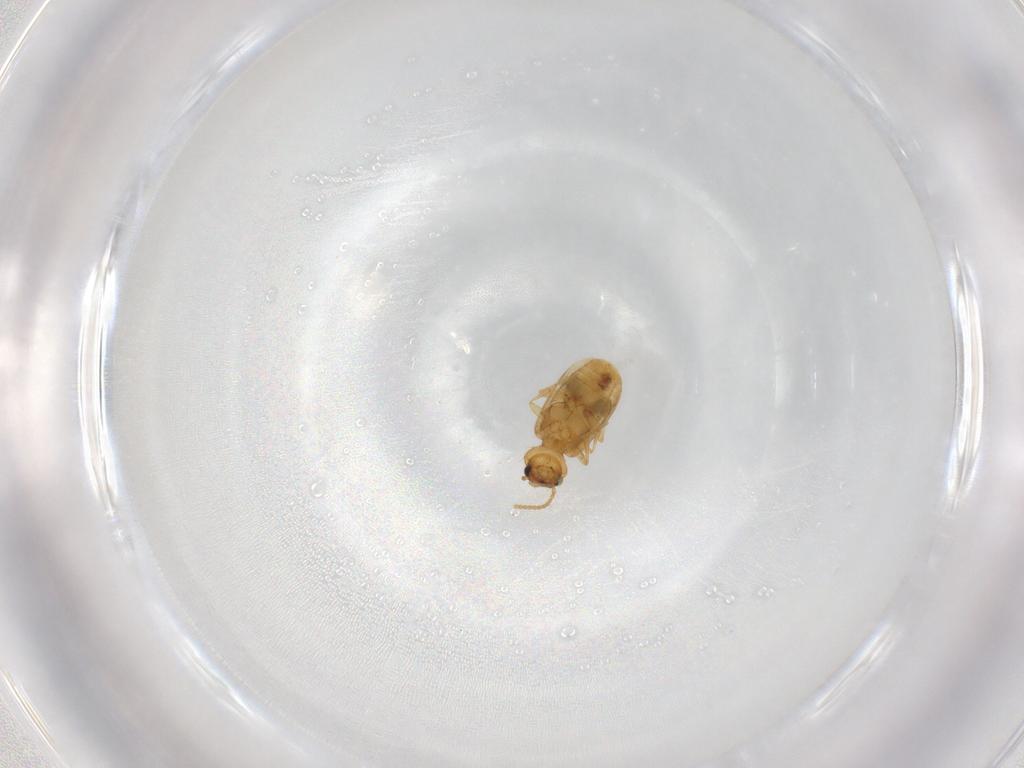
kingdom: Animalia
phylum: Arthropoda
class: Insecta
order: Coleoptera
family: Carabidae
